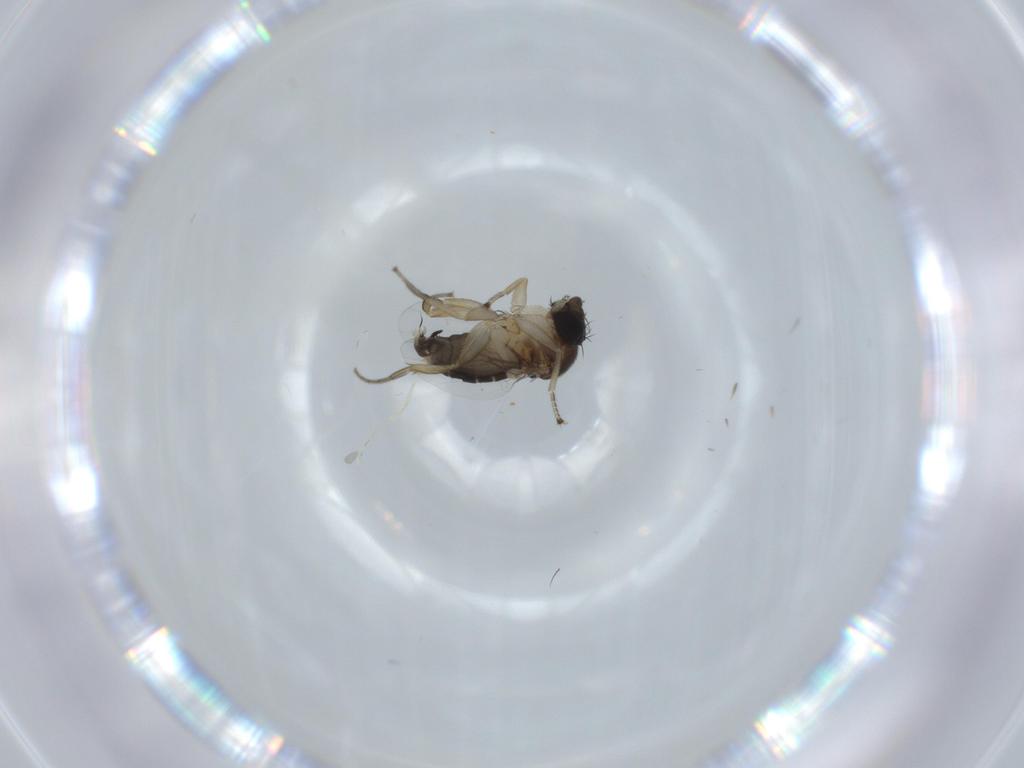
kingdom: Animalia
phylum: Arthropoda
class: Insecta
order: Diptera
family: Phoridae
